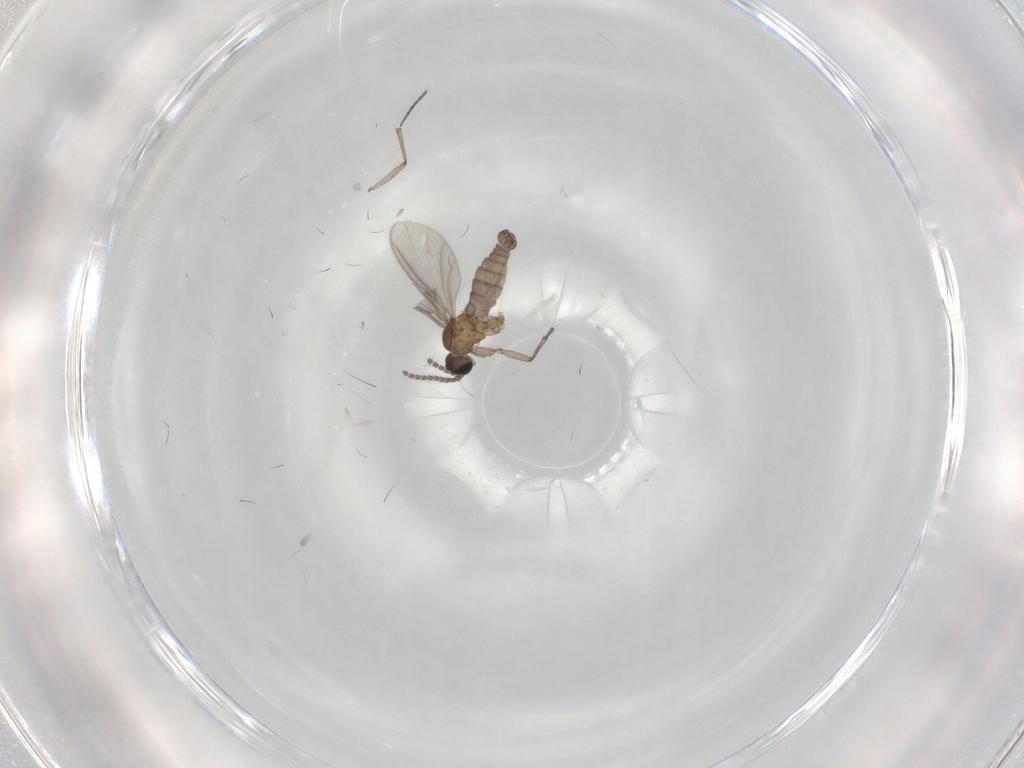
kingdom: Animalia
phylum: Arthropoda
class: Insecta
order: Diptera
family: Sciaridae
